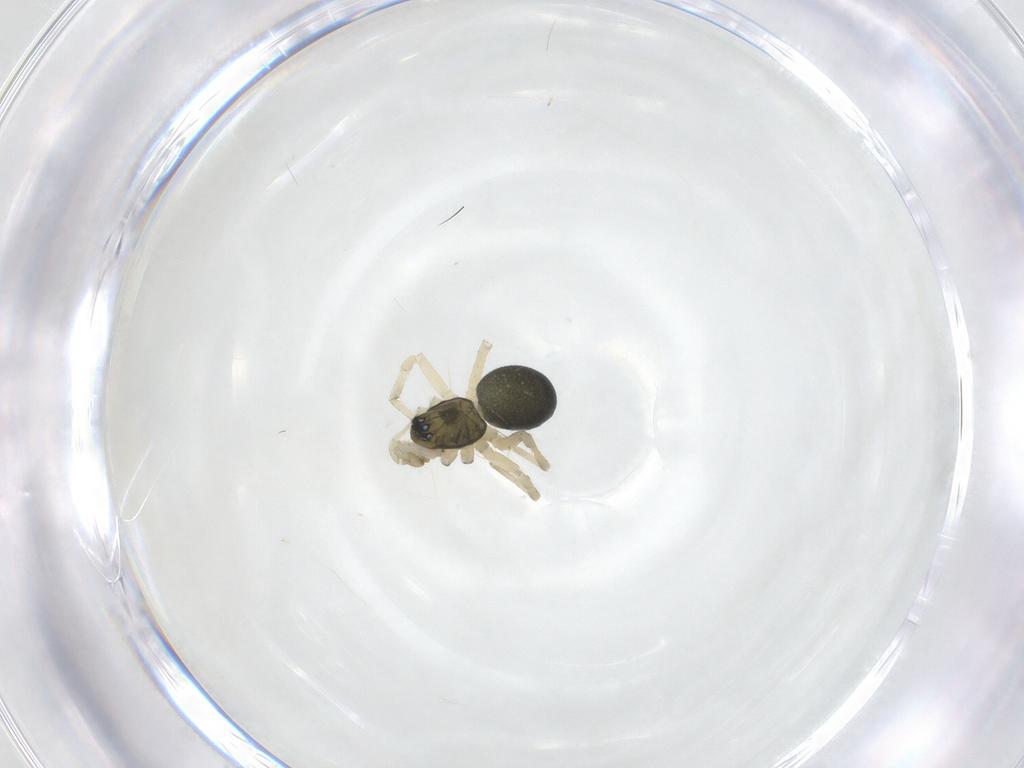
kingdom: Animalia
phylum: Arthropoda
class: Arachnida
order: Araneae
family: Linyphiidae
